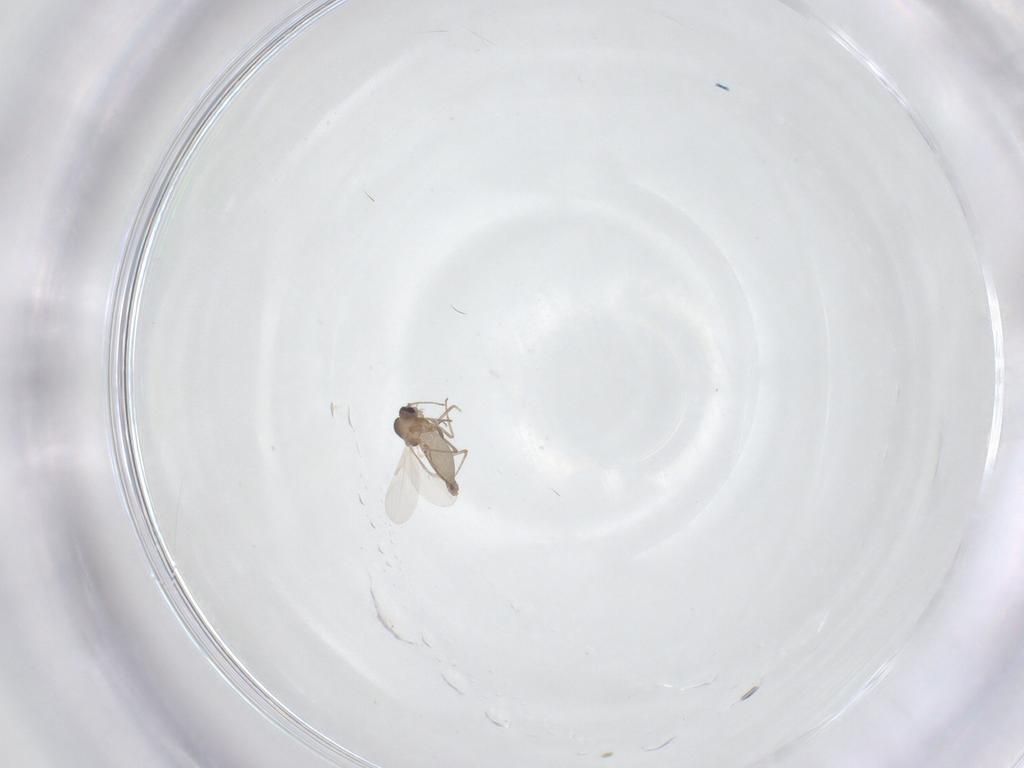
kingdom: Animalia
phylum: Arthropoda
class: Insecta
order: Diptera
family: Ceratopogonidae
